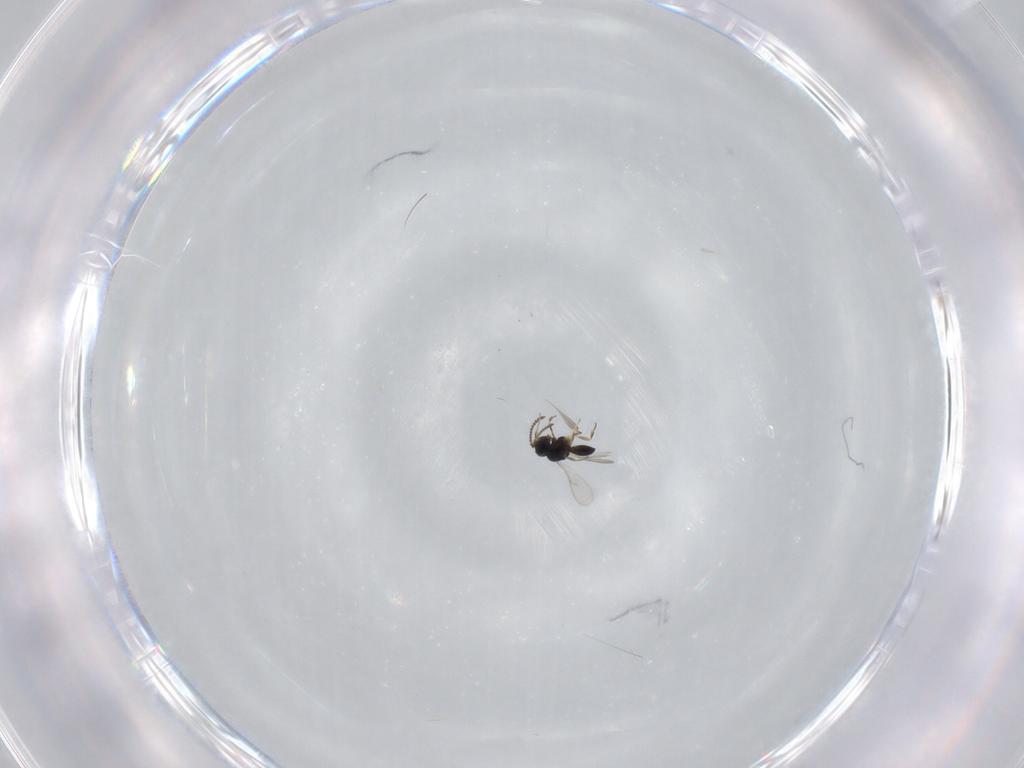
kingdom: Animalia
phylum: Arthropoda
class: Insecta
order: Hymenoptera
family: Scelionidae
